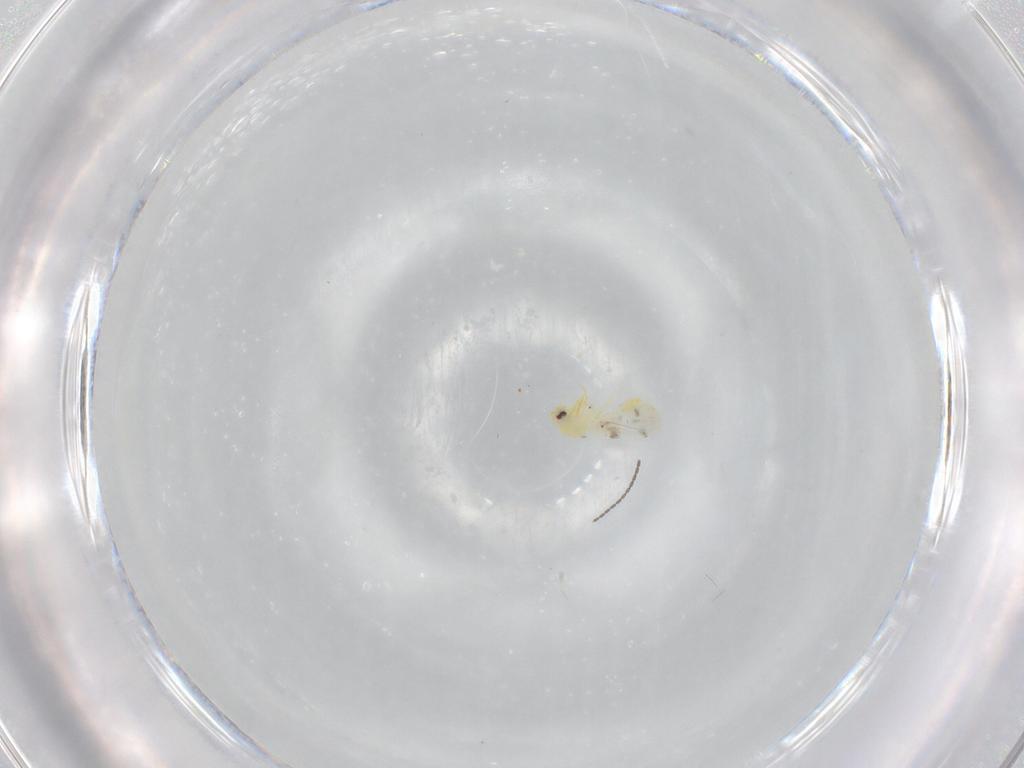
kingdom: Animalia
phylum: Arthropoda
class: Insecta
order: Hemiptera
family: Aleyrodidae
